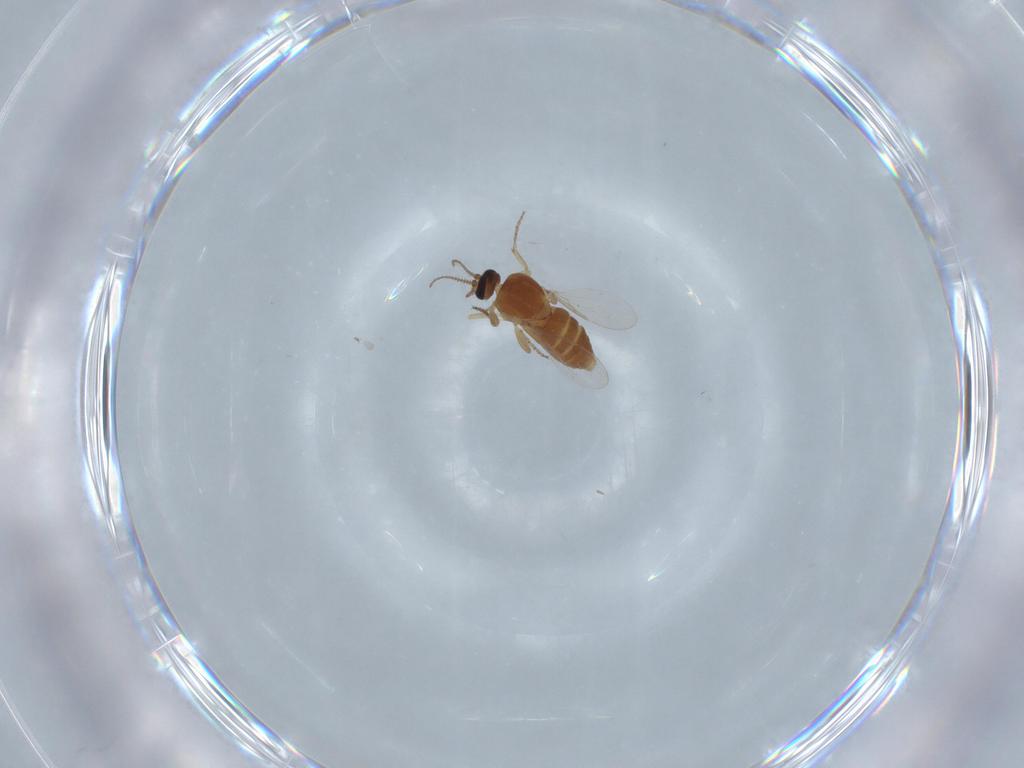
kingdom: Animalia
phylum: Arthropoda
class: Insecta
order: Diptera
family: Ceratopogonidae
